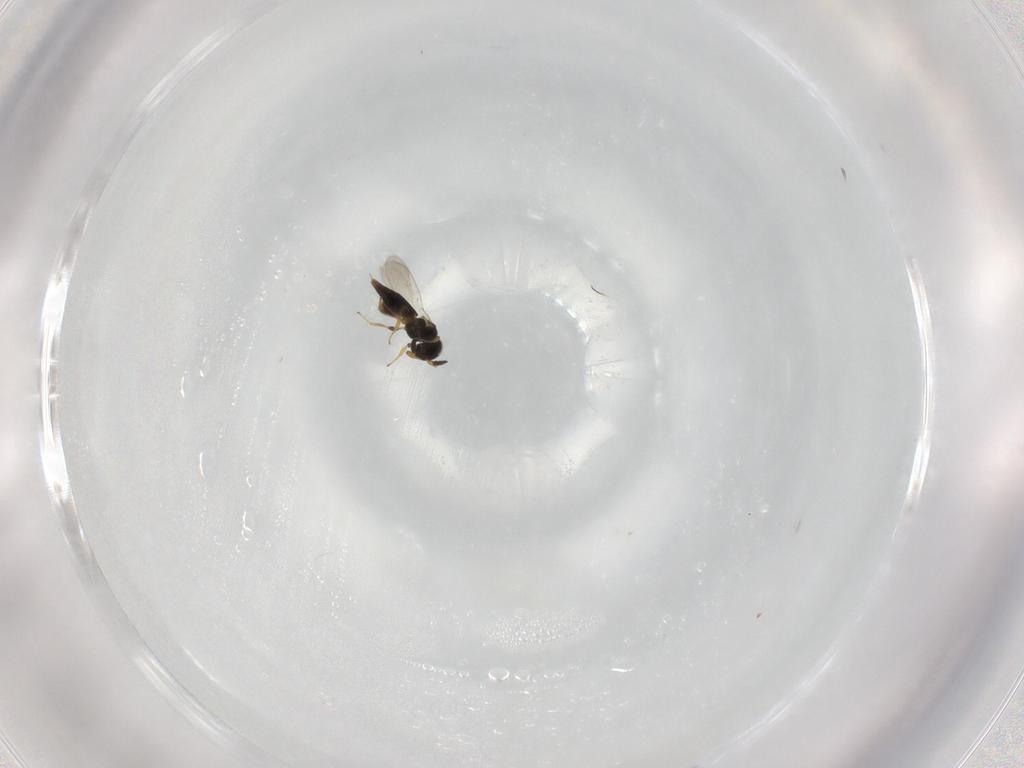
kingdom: Animalia
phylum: Arthropoda
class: Insecta
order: Hymenoptera
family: Platygastridae
